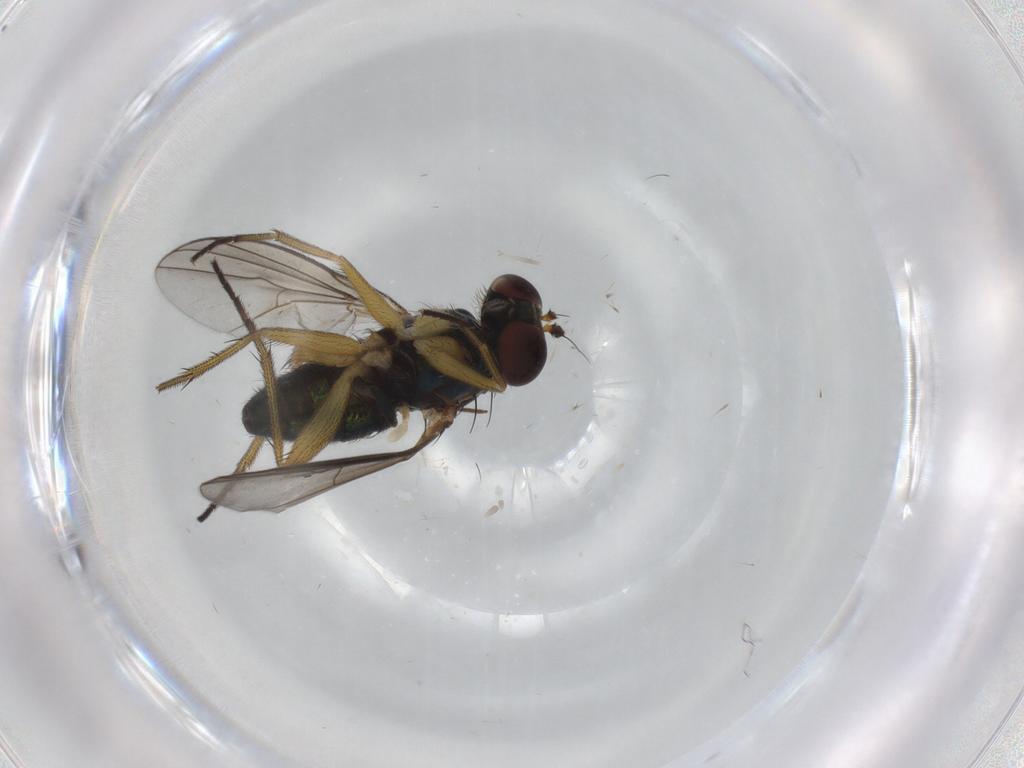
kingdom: Animalia
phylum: Arthropoda
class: Insecta
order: Diptera
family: Chironomidae
